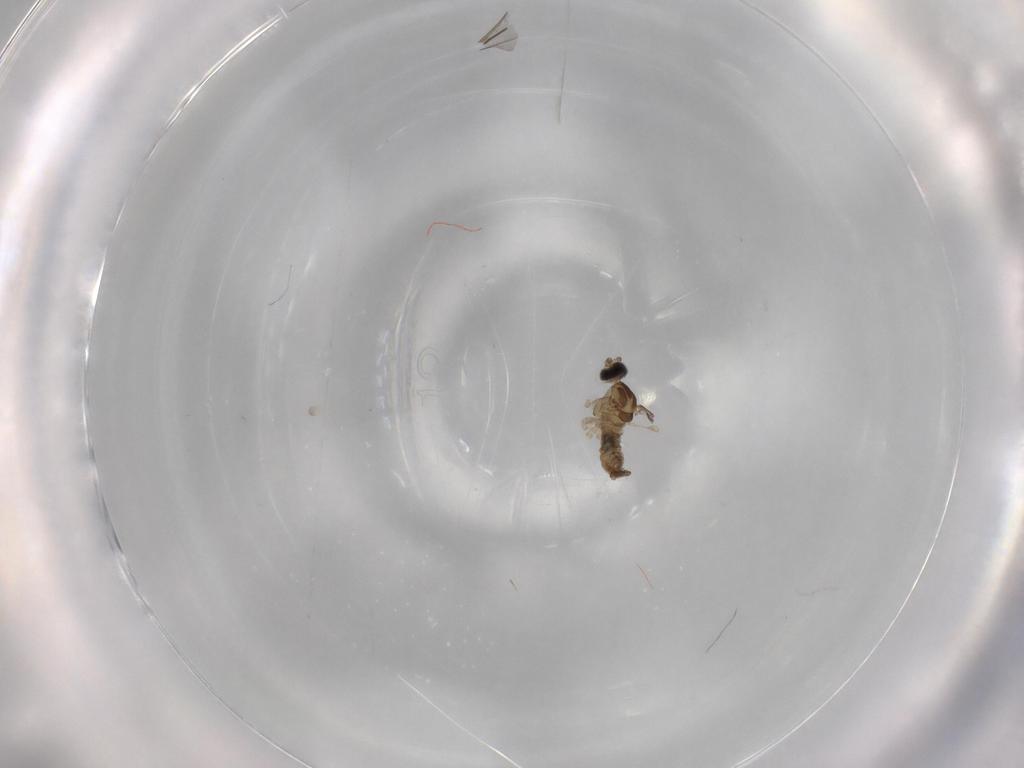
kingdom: Animalia
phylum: Arthropoda
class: Insecta
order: Diptera
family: Cecidomyiidae
